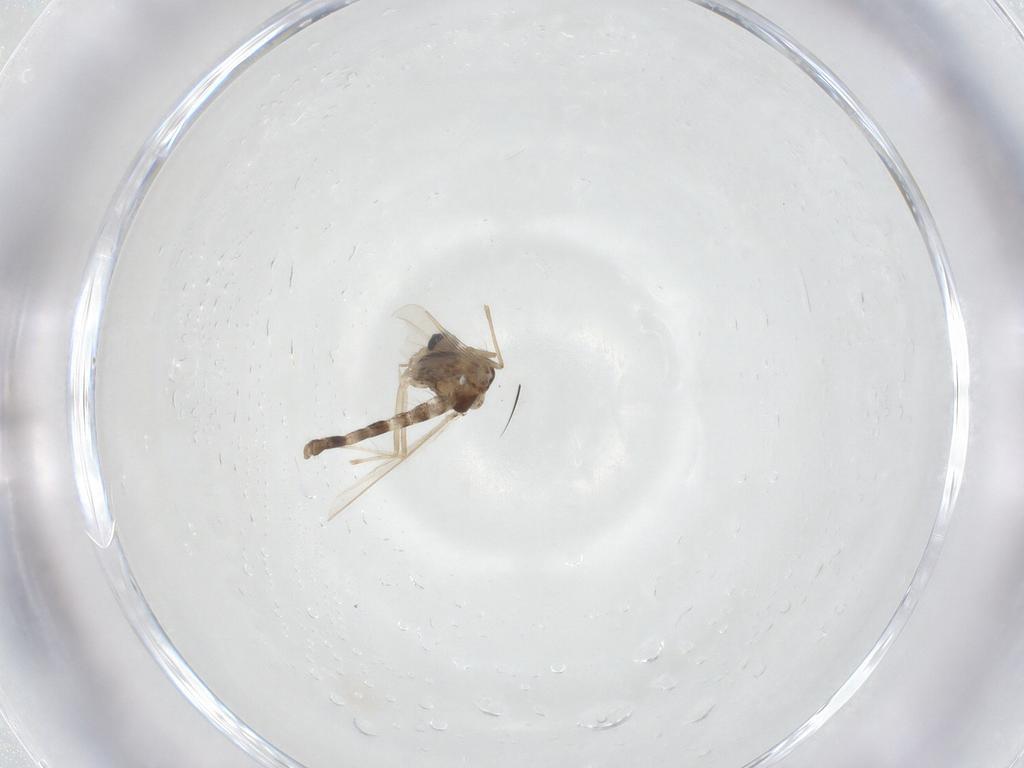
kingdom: Animalia
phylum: Arthropoda
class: Insecta
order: Diptera
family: Chironomidae
